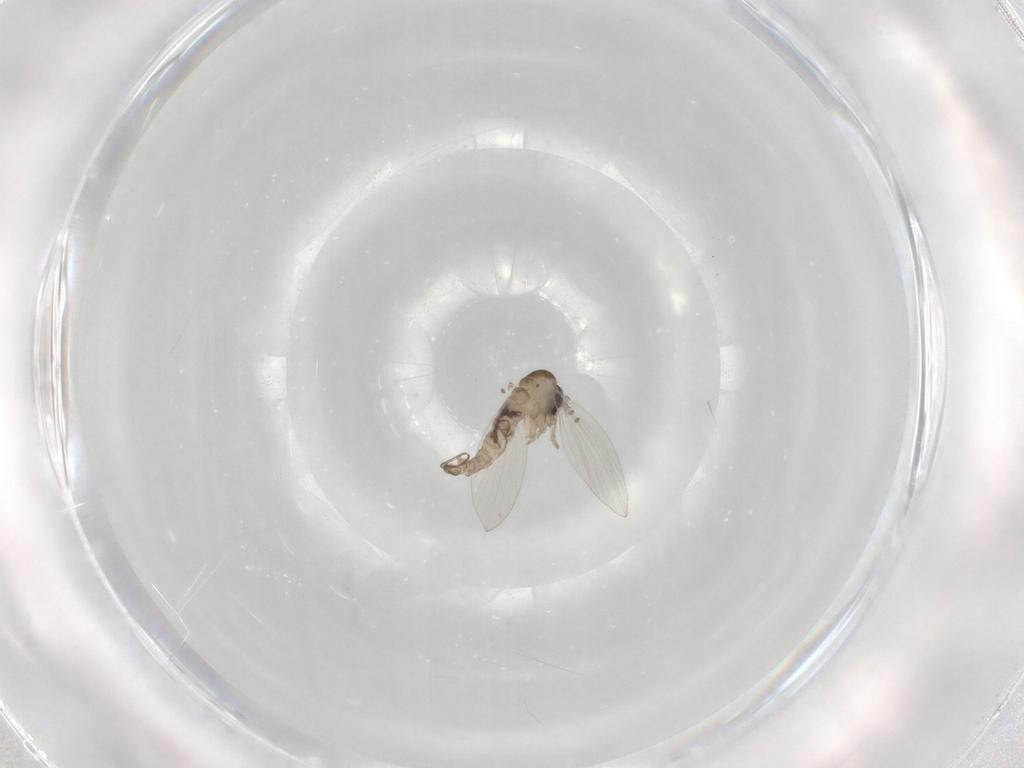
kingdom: Animalia
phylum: Arthropoda
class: Insecta
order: Diptera
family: Psychodidae
